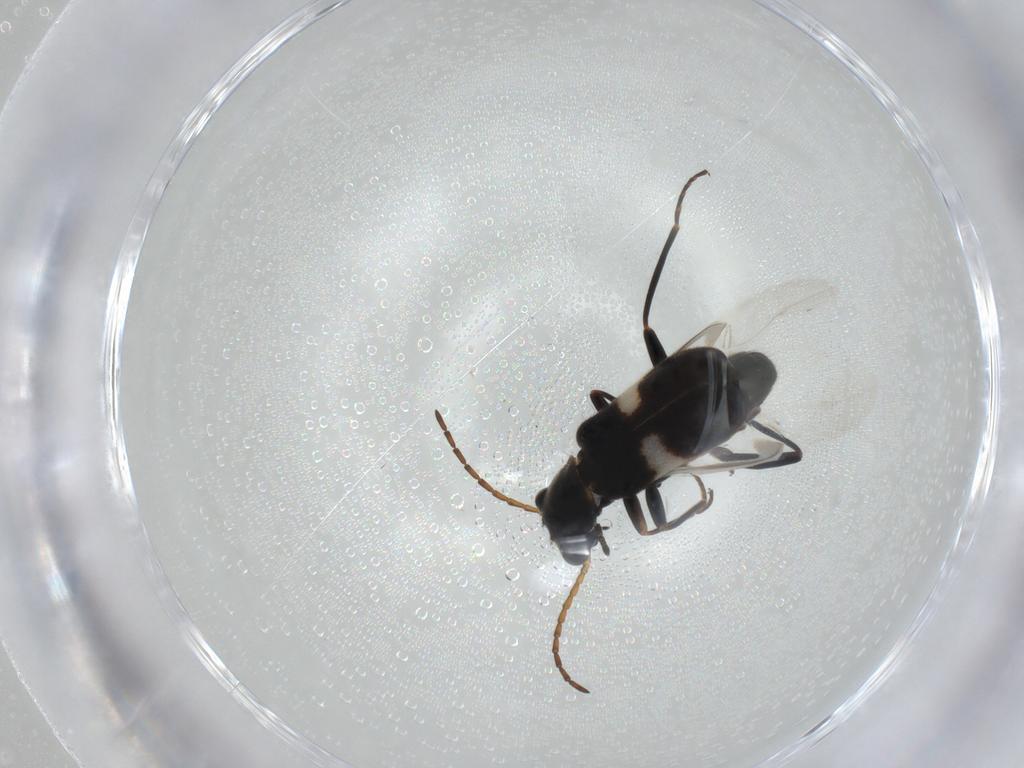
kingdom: Animalia
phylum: Arthropoda
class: Insecta
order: Coleoptera
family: Melyridae
